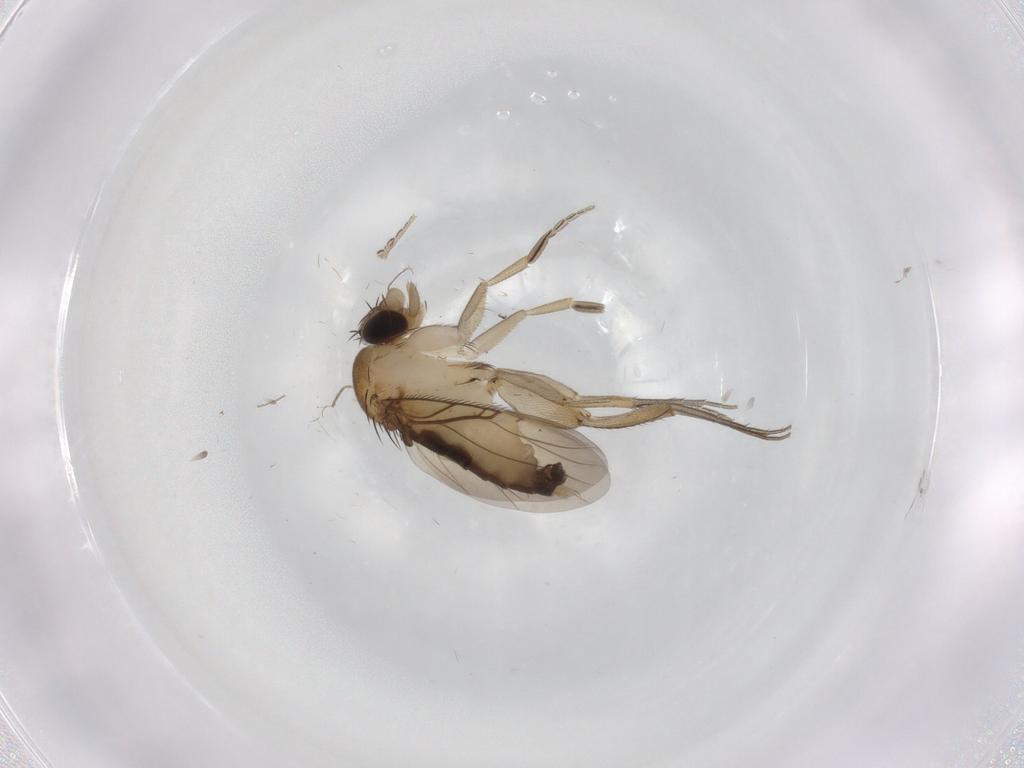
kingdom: Animalia
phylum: Arthropoda
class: Insecta
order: Diptera
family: Phoridae
